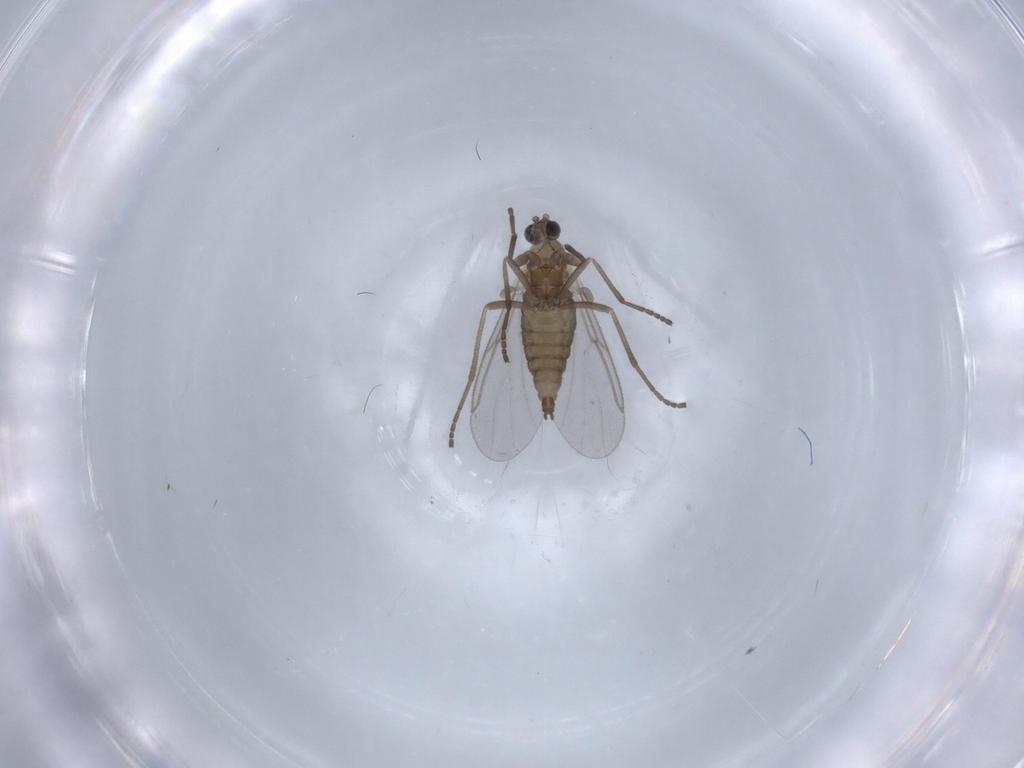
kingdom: Animalia
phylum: Arthropoda
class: Insecta
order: Diptera
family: Cecidomyiidae
